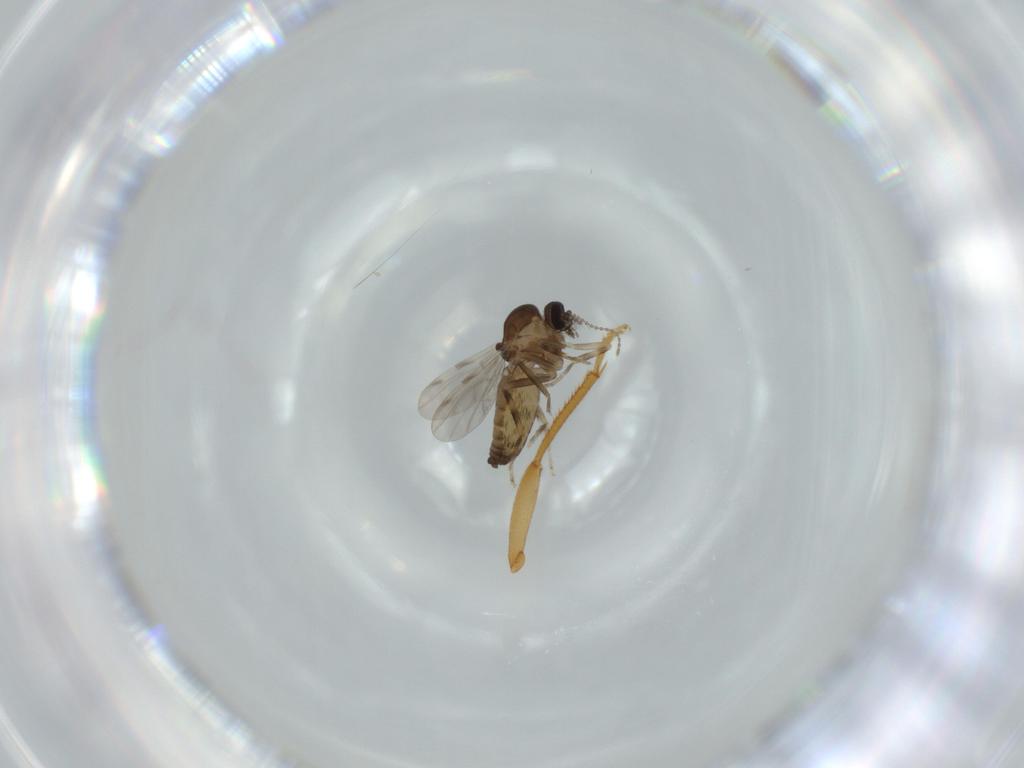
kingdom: Animalia
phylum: Arthropoda
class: Insecta
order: Diptera
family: Ceratopogonidae
